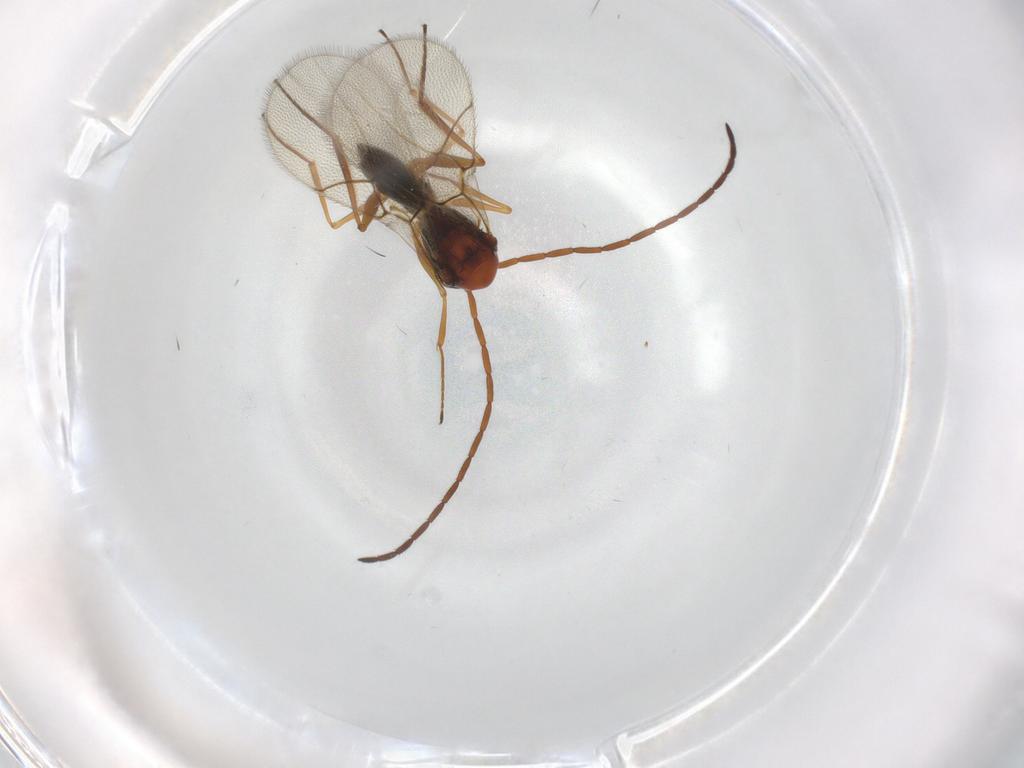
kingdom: Animalia
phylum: Arthropoda
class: Insecta
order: Hymenoptera
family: Figitidae
